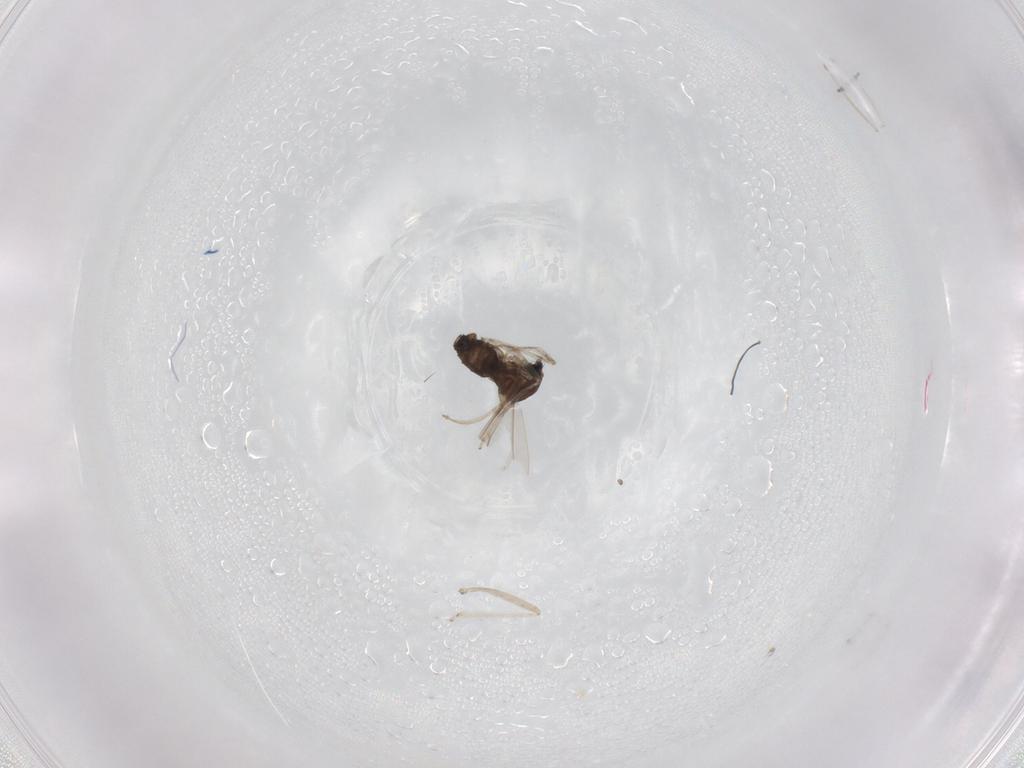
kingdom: Animalia
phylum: Arthropoda
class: Insecta
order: Diptera
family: Cecidomyiidae
